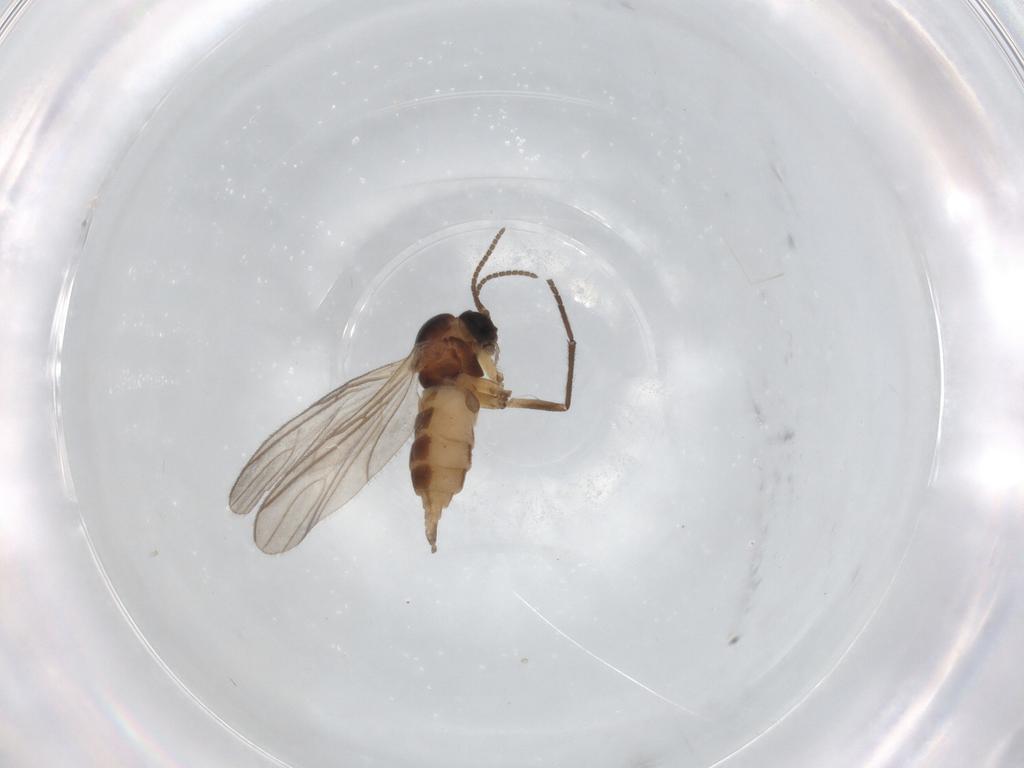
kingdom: Animalia
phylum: Arthropoda
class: Insecta
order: Diptera
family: Sciaridae
